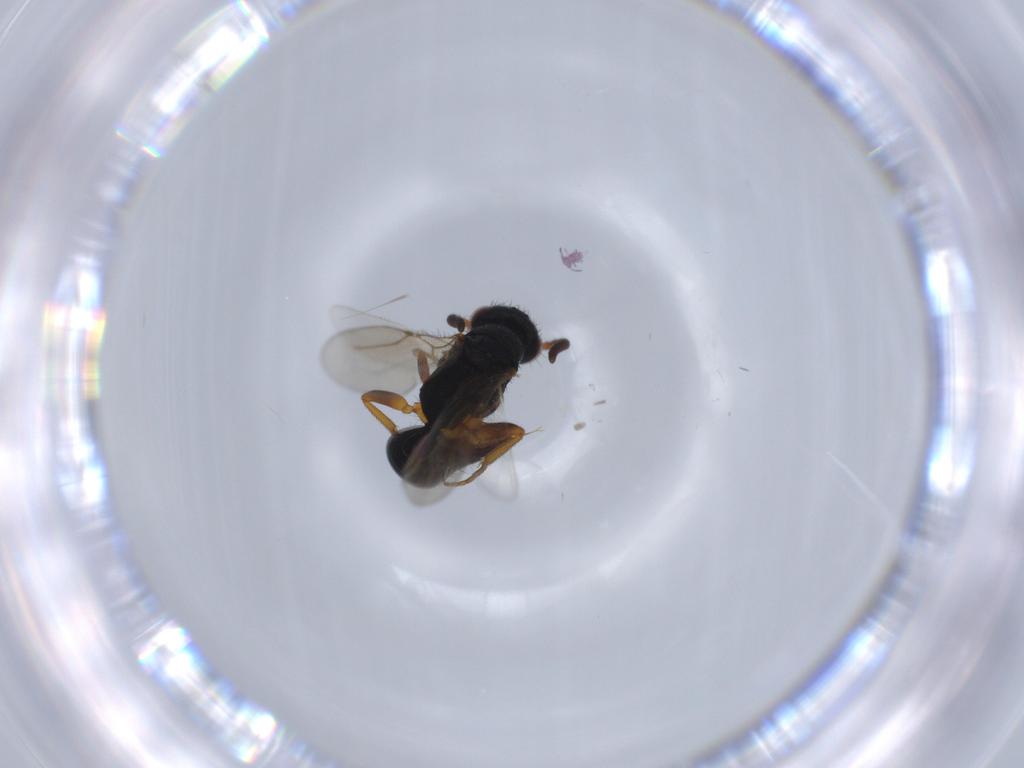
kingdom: Animalia
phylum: Arthropoda
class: Insecta
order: Hymenoptera
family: Bethylidae
